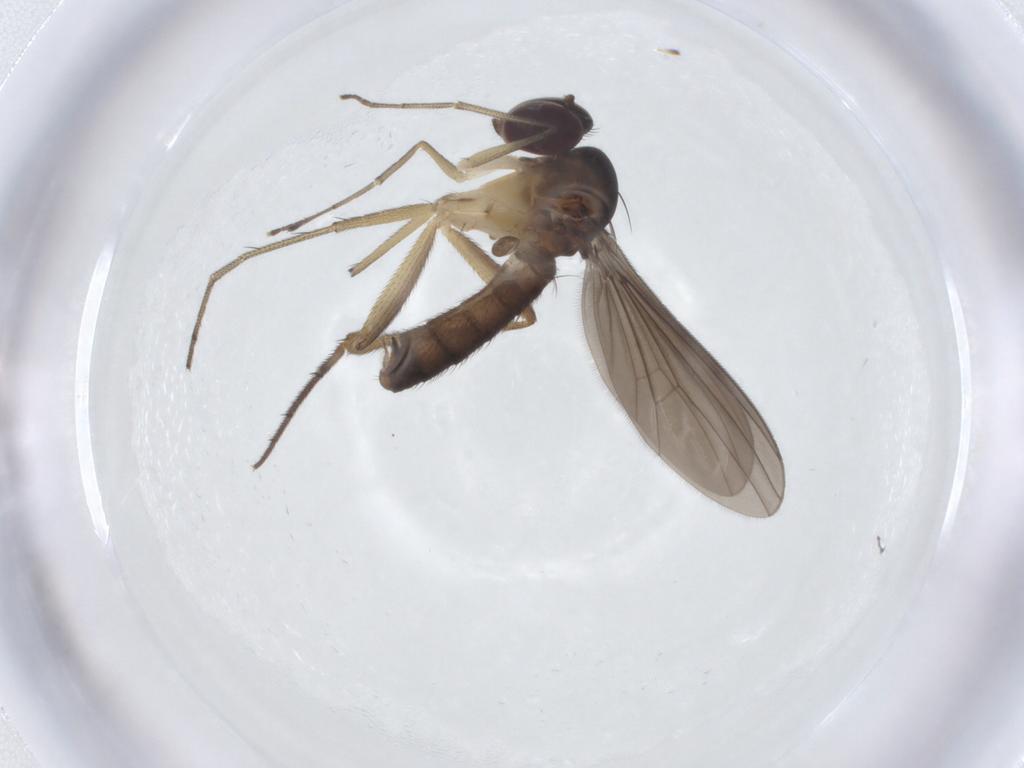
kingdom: Animalia
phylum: Arthropoda
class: Insecta
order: Diptera
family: Dolichopodidae
